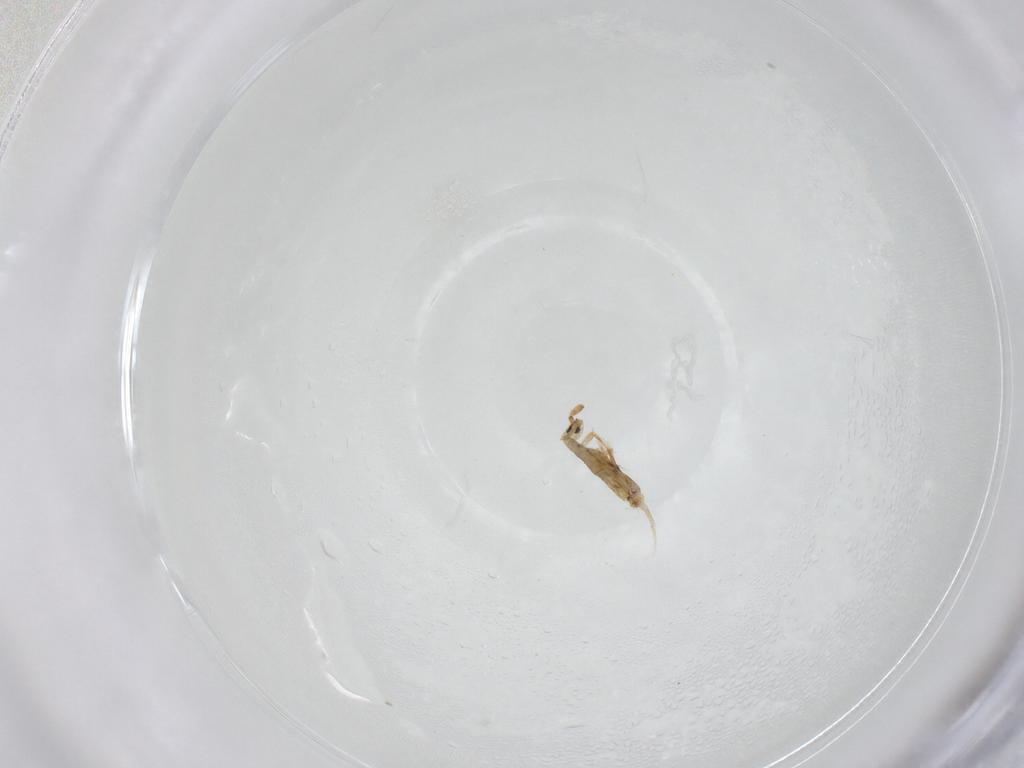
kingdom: Animalia
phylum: Arthropoda
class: Collembola
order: Entomobryomorpha
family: Entomobryidae
